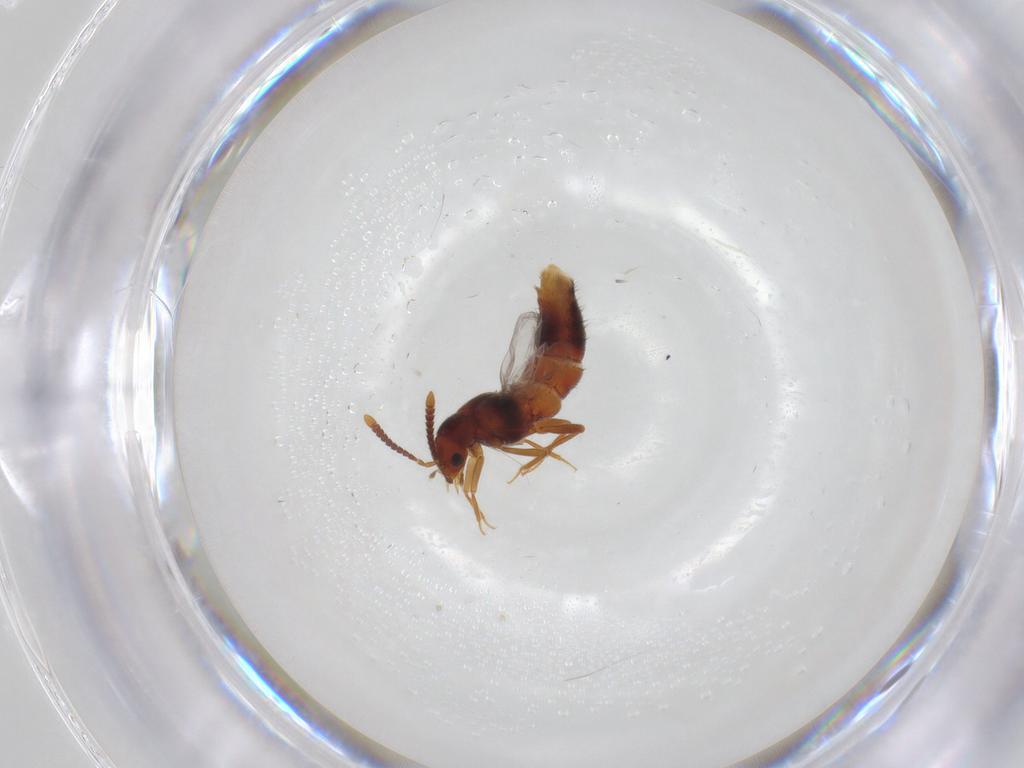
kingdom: Animalia
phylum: Arthropoda
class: Insecta
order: Coleoptera
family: Staphylinidae
